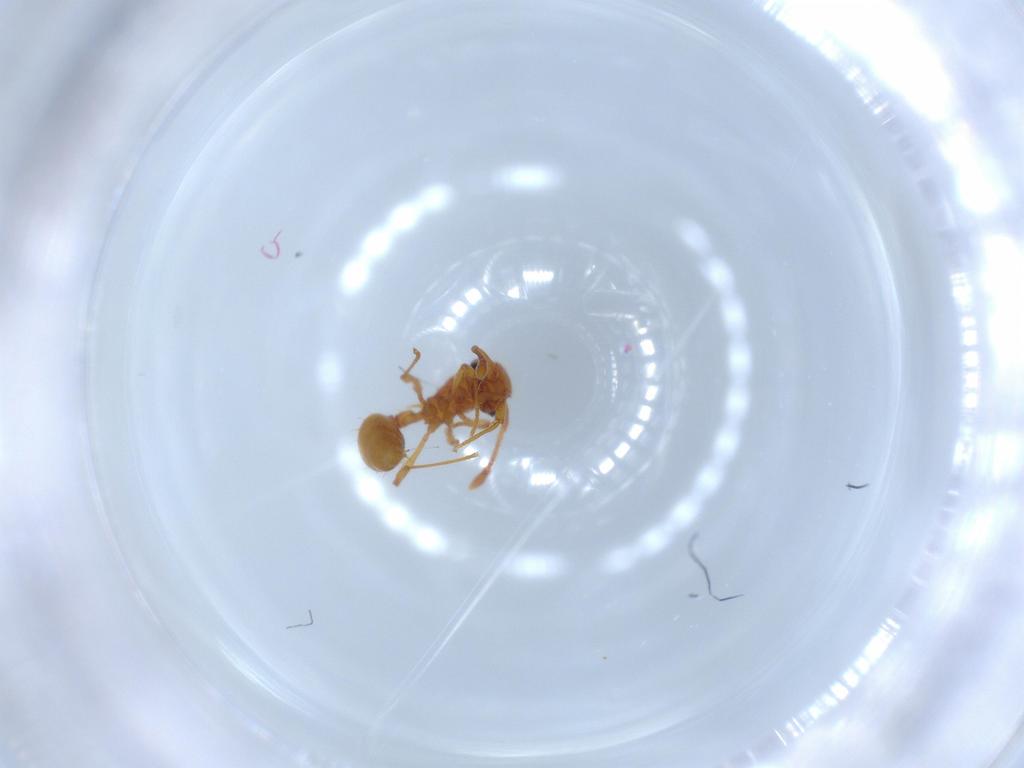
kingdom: Animalia
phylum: Arthropoda
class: Insecta
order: Hymenoptera
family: Formicidae
